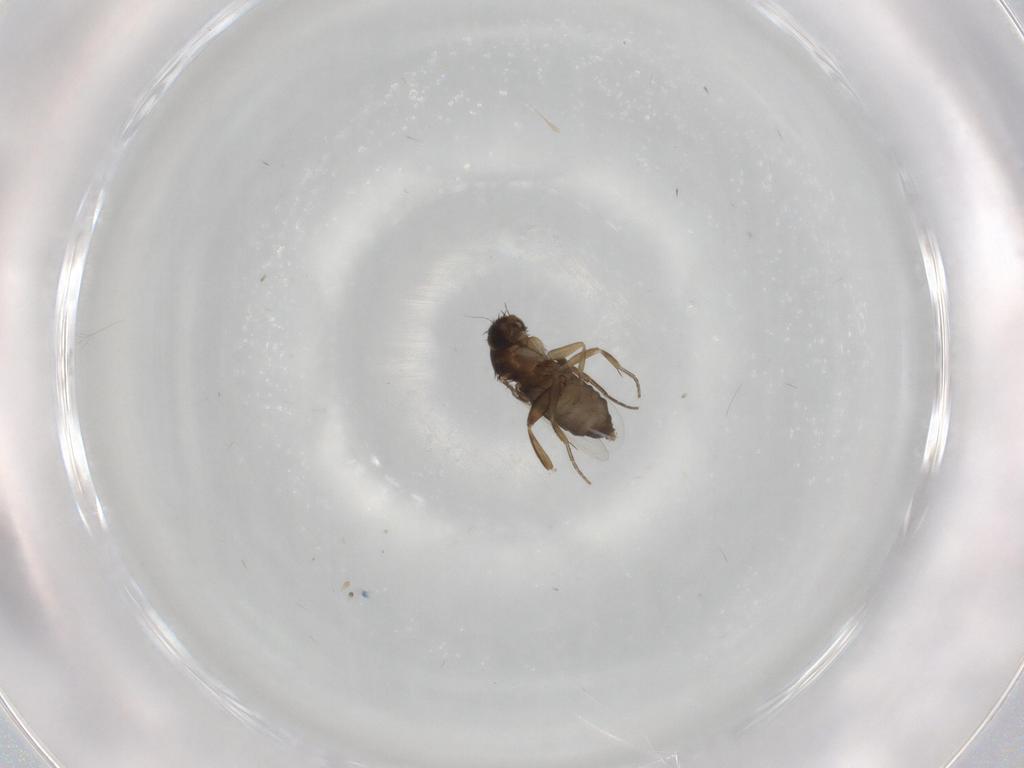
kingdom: Animalia
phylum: Arthropoda
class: Insecta
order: Diptera
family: Phoridae
